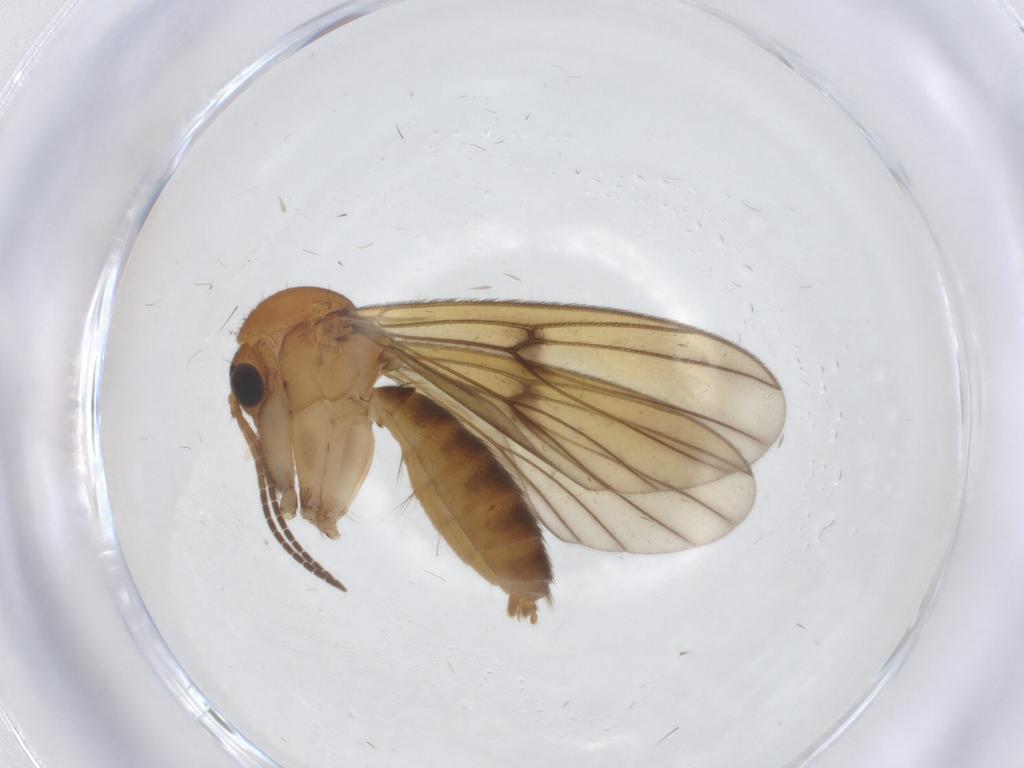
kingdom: Animalia
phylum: Arthropoda
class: Insecta
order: Diptera
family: Mycetophilidae
